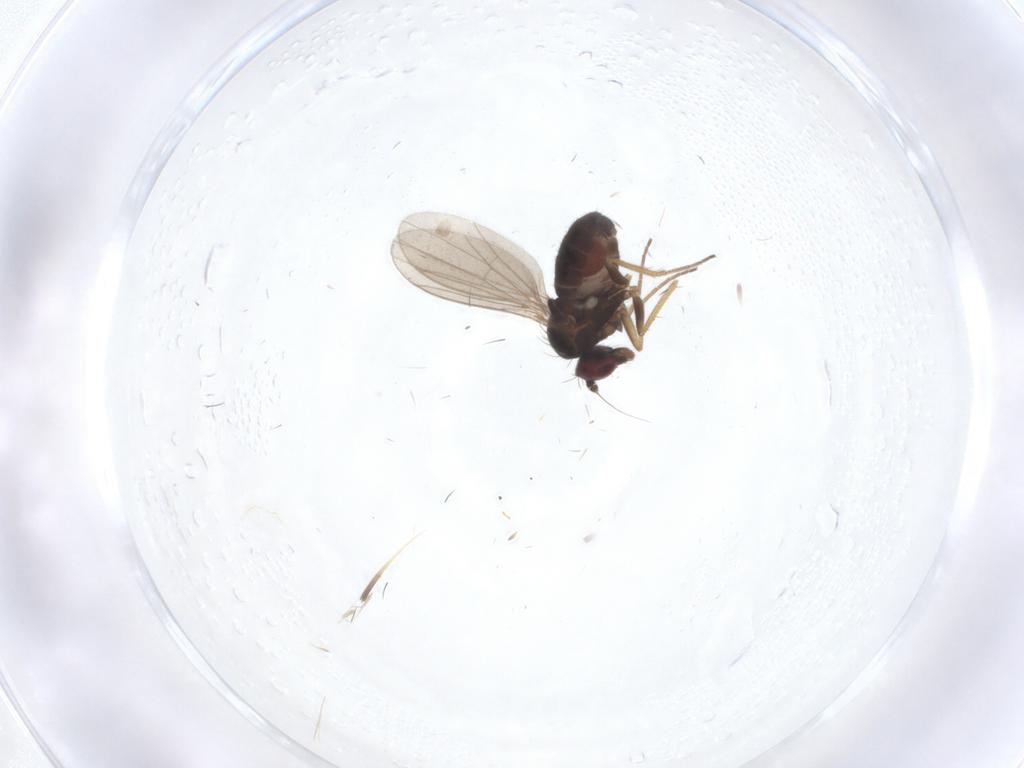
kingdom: Animalia
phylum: Arthropoda
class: Insecta
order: Diptera
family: Dolichopodidae
